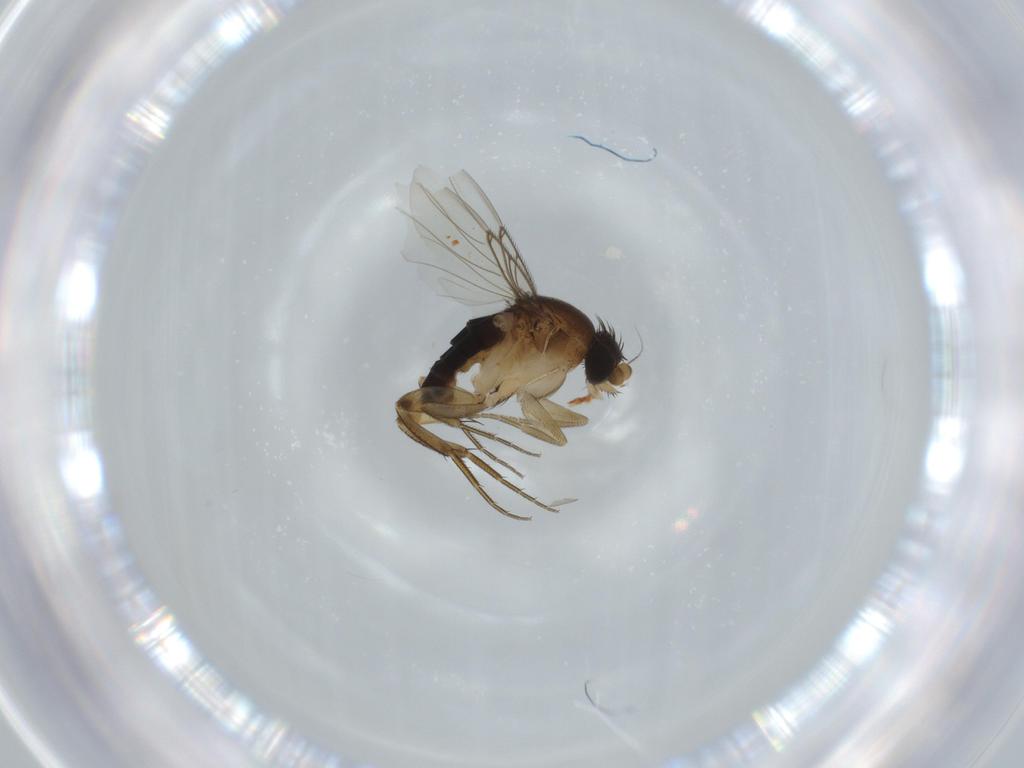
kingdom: Animalia
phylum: Arthropoda
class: Insecta
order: Diptera
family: Phoridae
